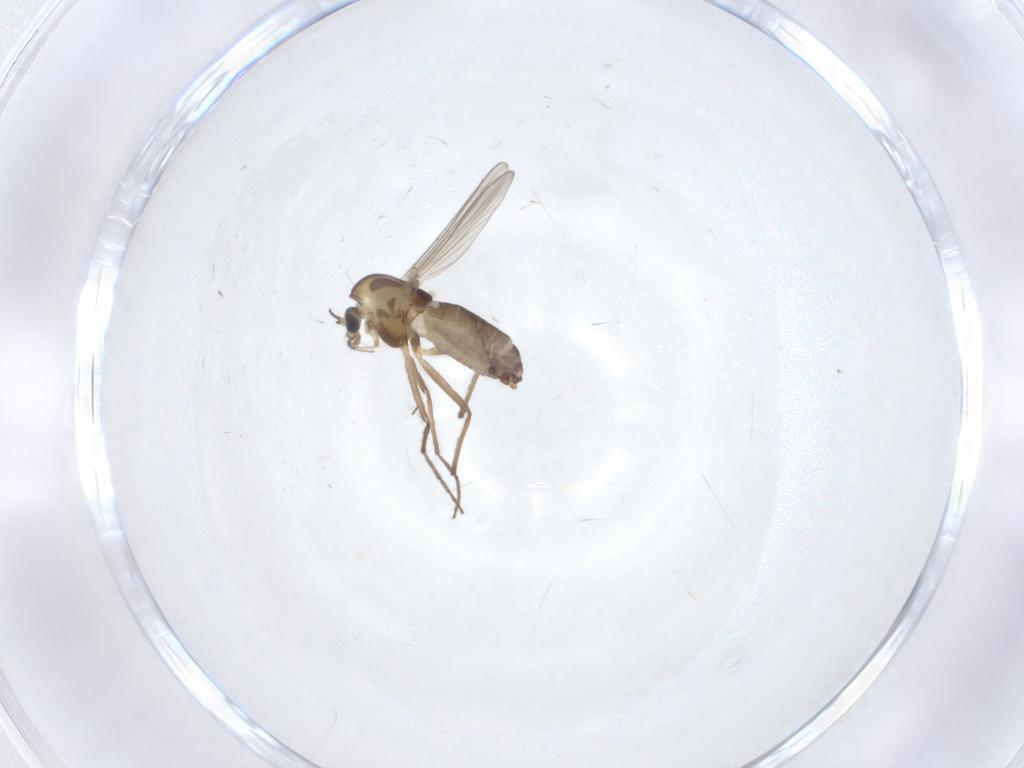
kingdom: Animalia
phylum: Arthropoda
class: Insecta
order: Diptera
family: Chironomidae
